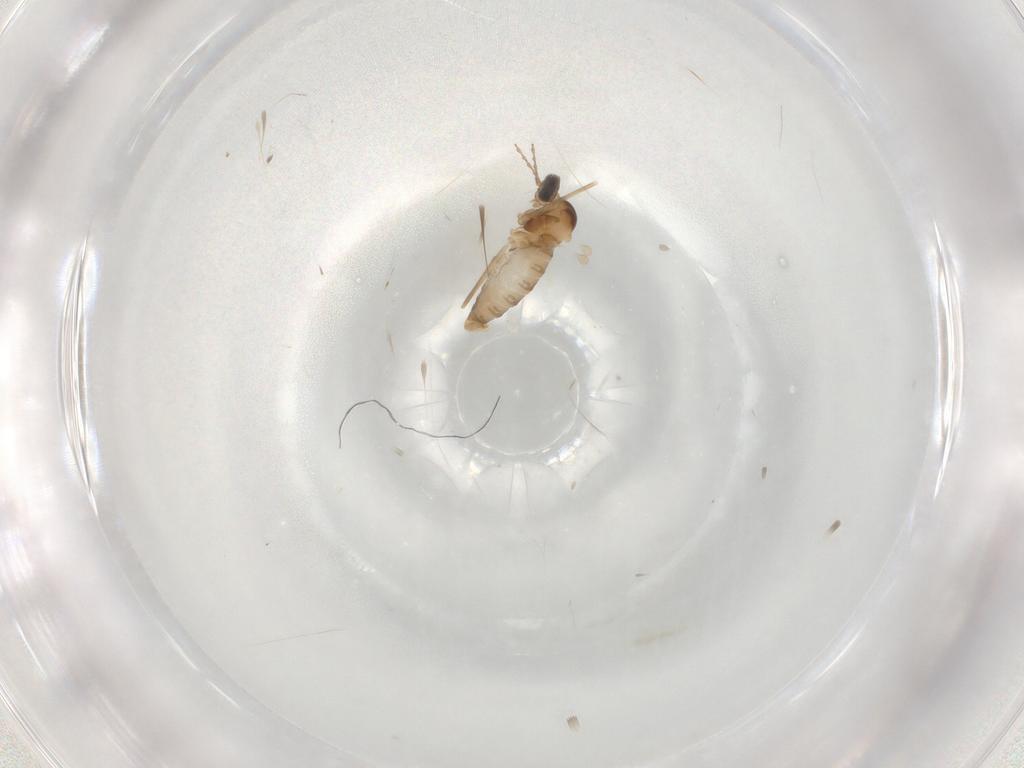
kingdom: Animalia
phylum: Arthropoda
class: Insecta
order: Diptera
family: Cecidomyiidae
